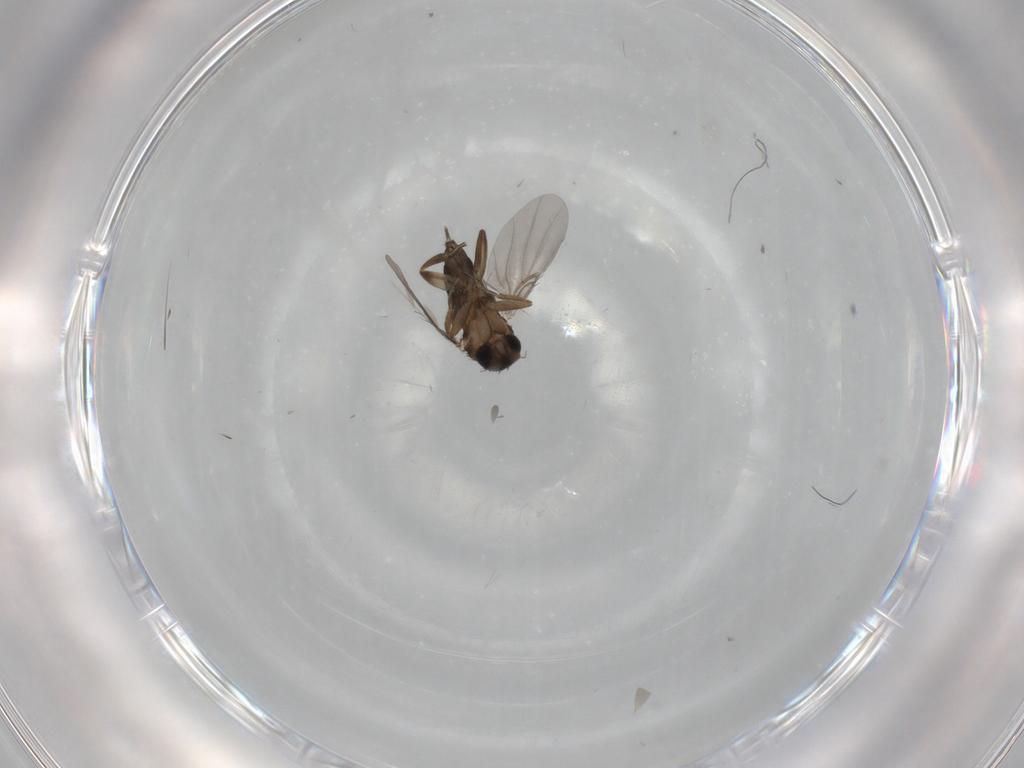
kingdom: Animalia
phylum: Arthropoda
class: Insecta
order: Diptera
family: Phoridae
